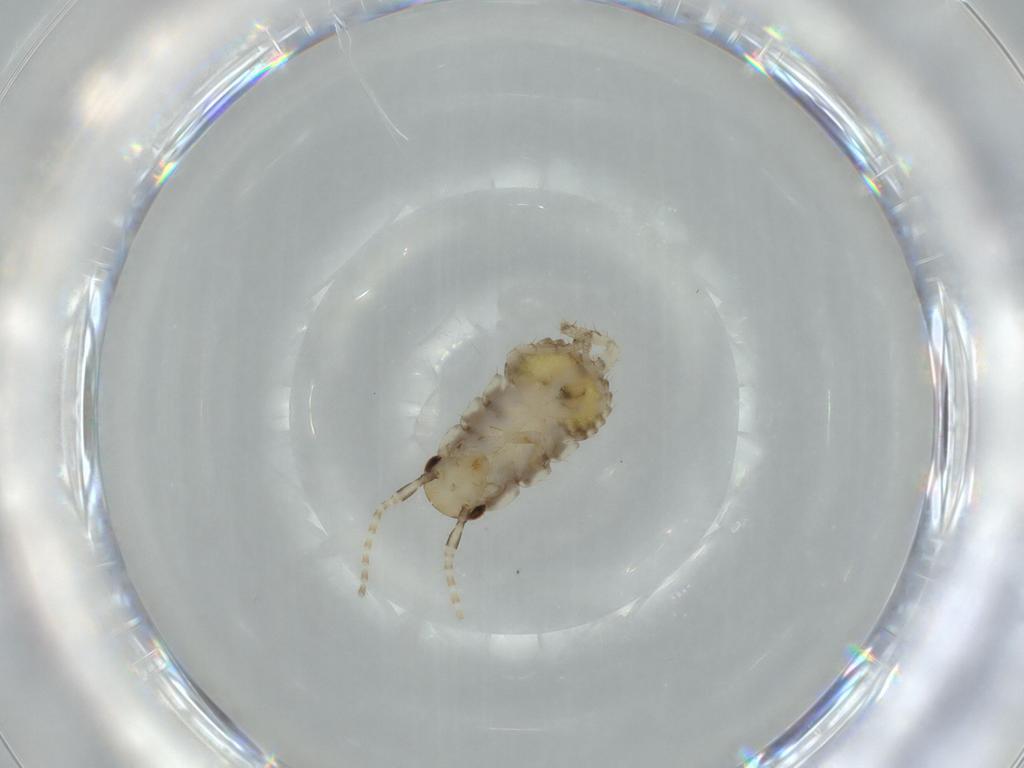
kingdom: Animalia
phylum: Arthropoda
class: Insecta
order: Blattodea
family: Ectobiidae
